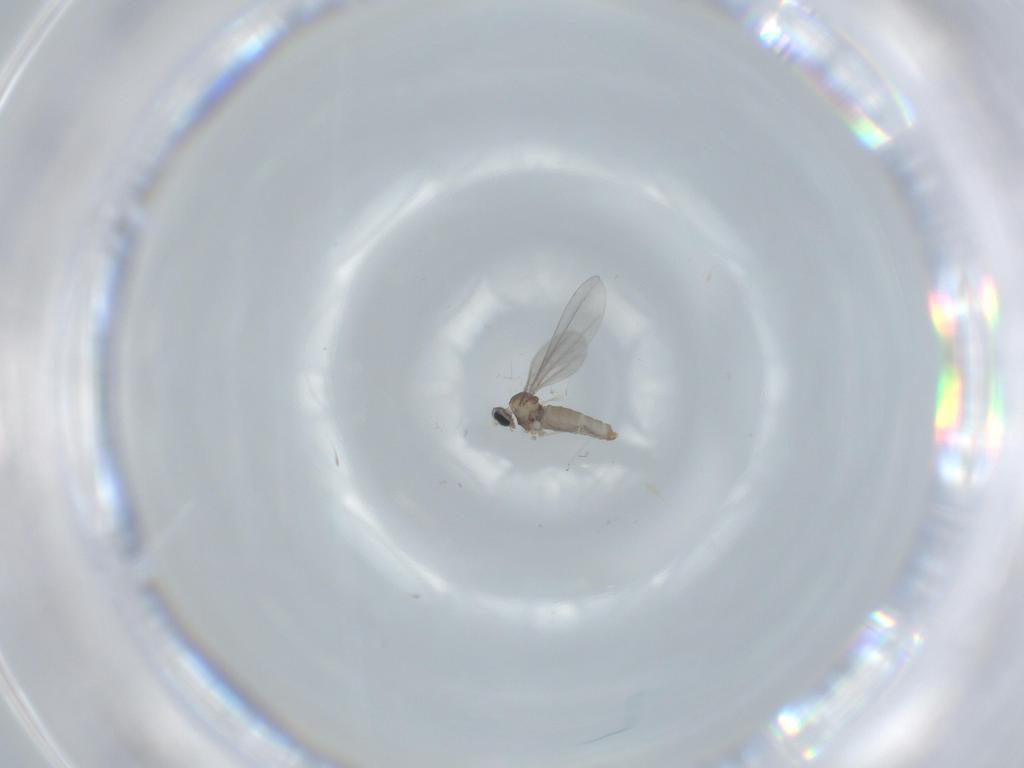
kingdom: Animalia
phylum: Arthropoda
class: Insecta
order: Diptera
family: Cecidomyiidae
